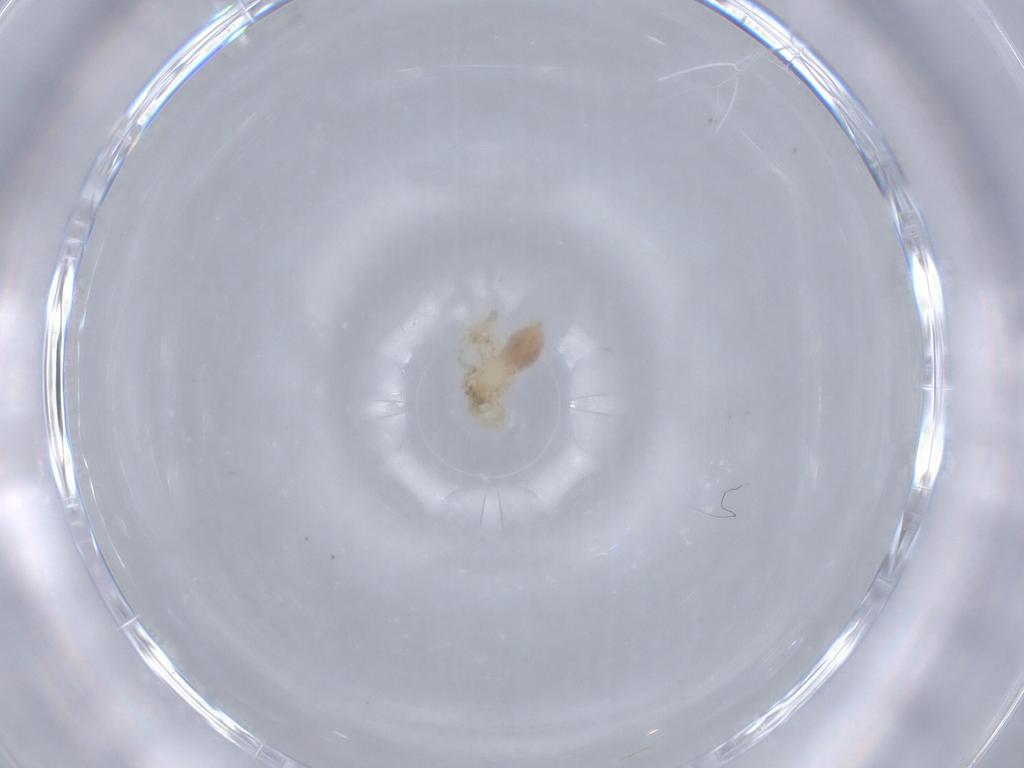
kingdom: Animalia
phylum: Arthropoda
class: Arachnida
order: Araneae
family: Oonopidae
